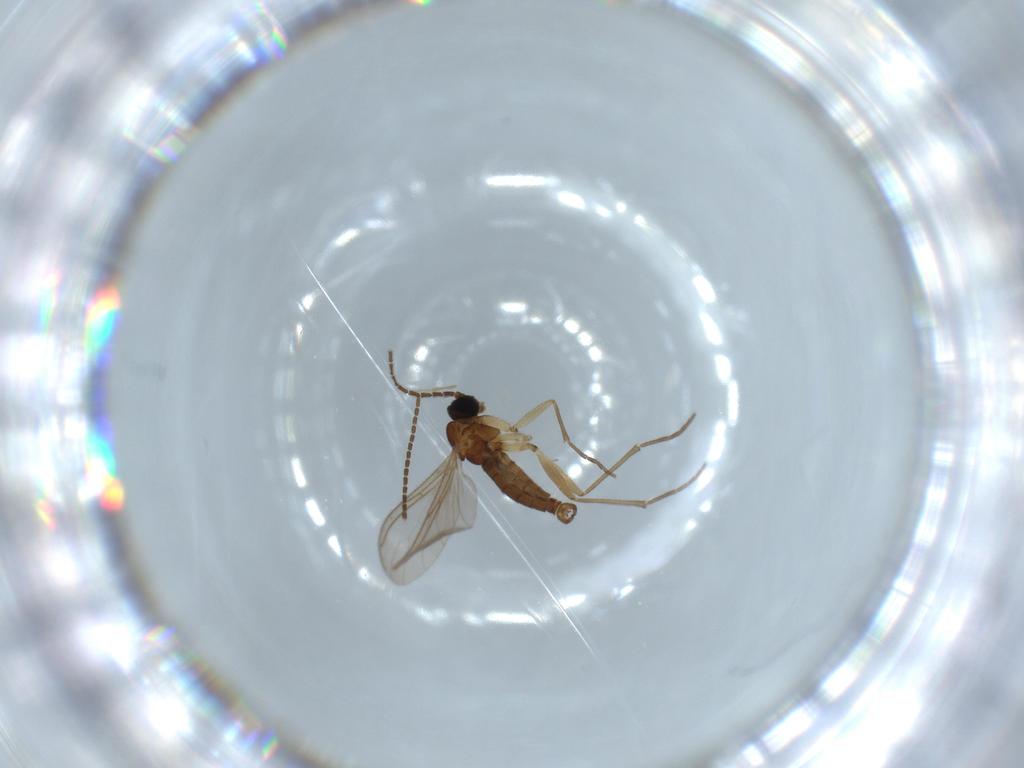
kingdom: Animalia
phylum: Arthropoda
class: Insecta
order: Diptera
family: Sciaridae
